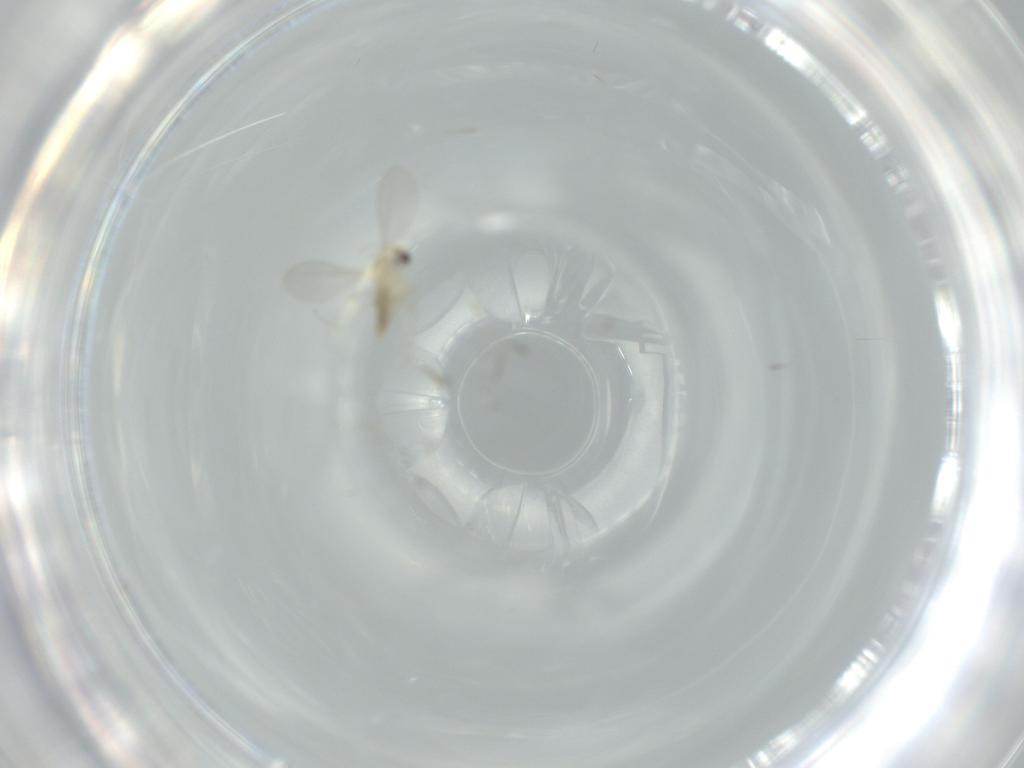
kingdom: Animalia
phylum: Arthropoda
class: Insecta
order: Diptera
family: Cecidomyiidae
